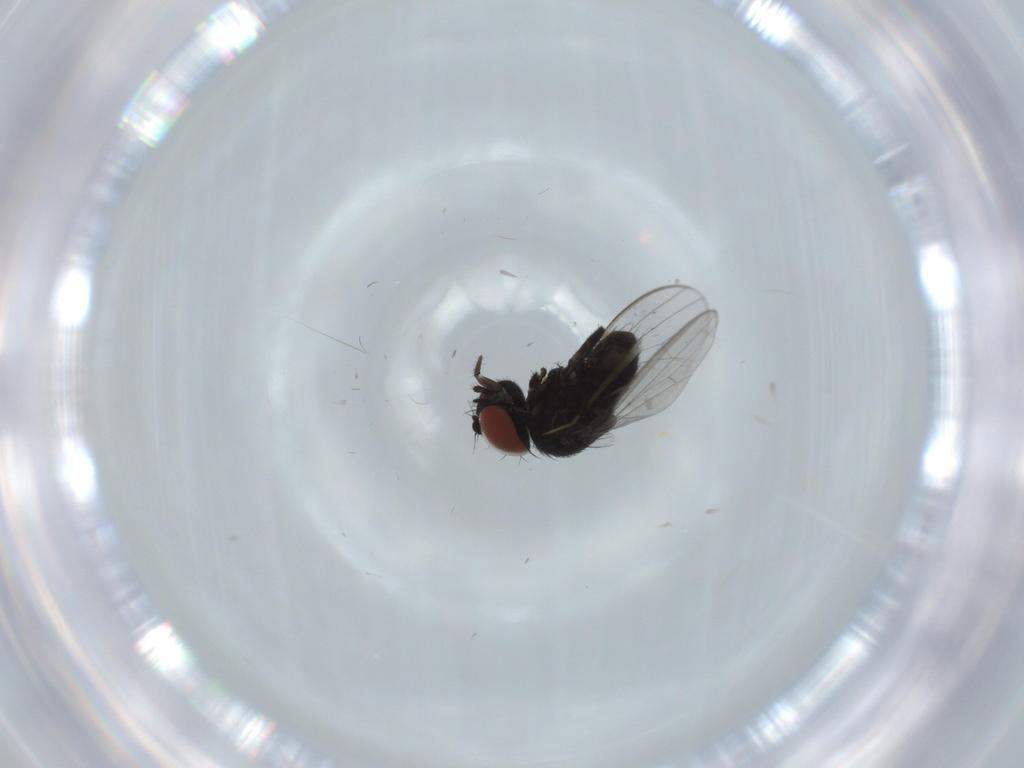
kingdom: Animalia
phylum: Arthropoda
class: Insecta
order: Diptera
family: Milichiidae
